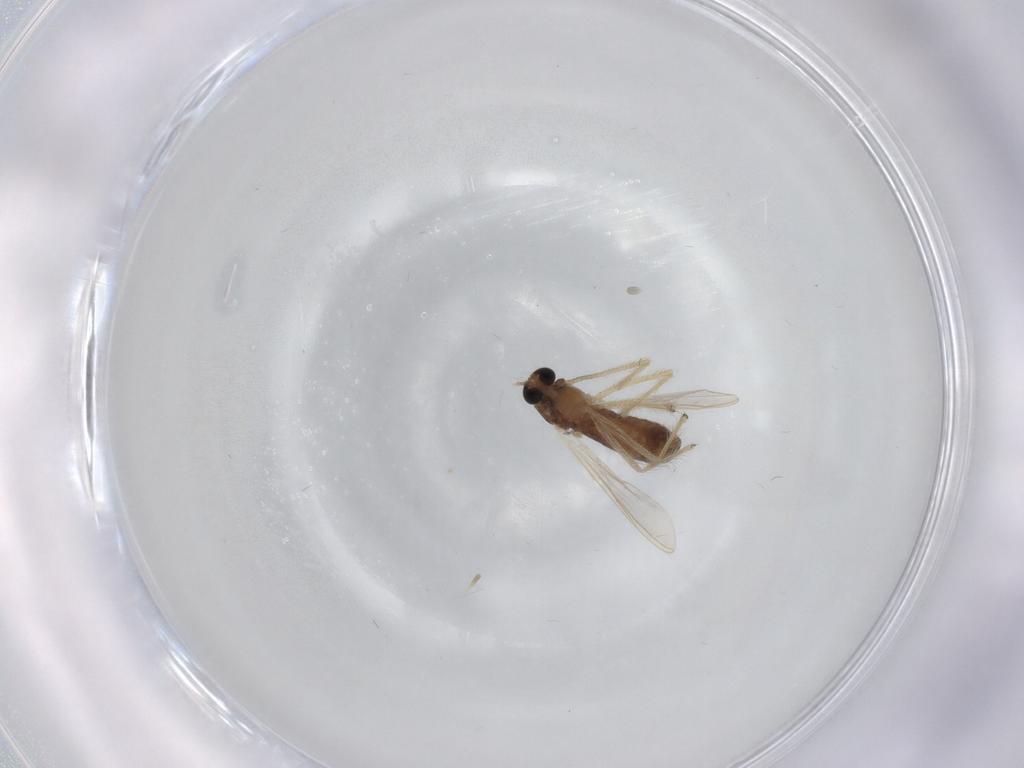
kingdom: Animalia
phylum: Arthropoda
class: Insecta
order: Diptera
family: Chironomidae
